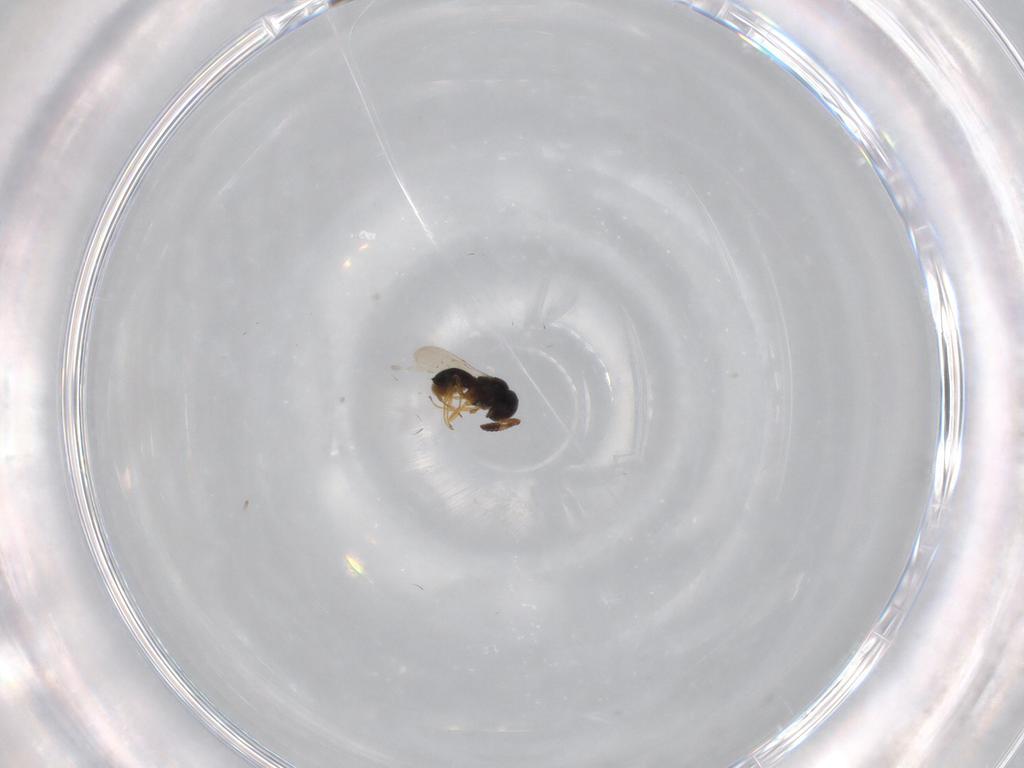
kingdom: Animalia
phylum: Arthropoda
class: Insecta
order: Hymenoptera
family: Scelionidae
